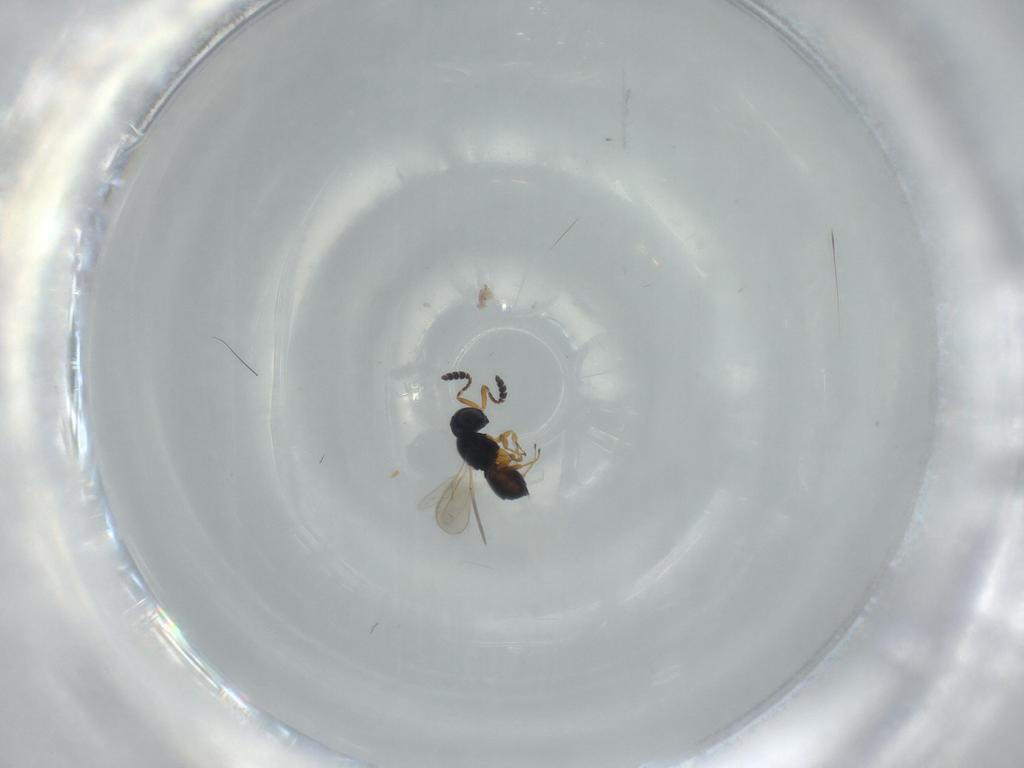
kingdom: Animalia
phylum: Arthropoda
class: Insecta
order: Hymenoptera
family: Scelionidae
